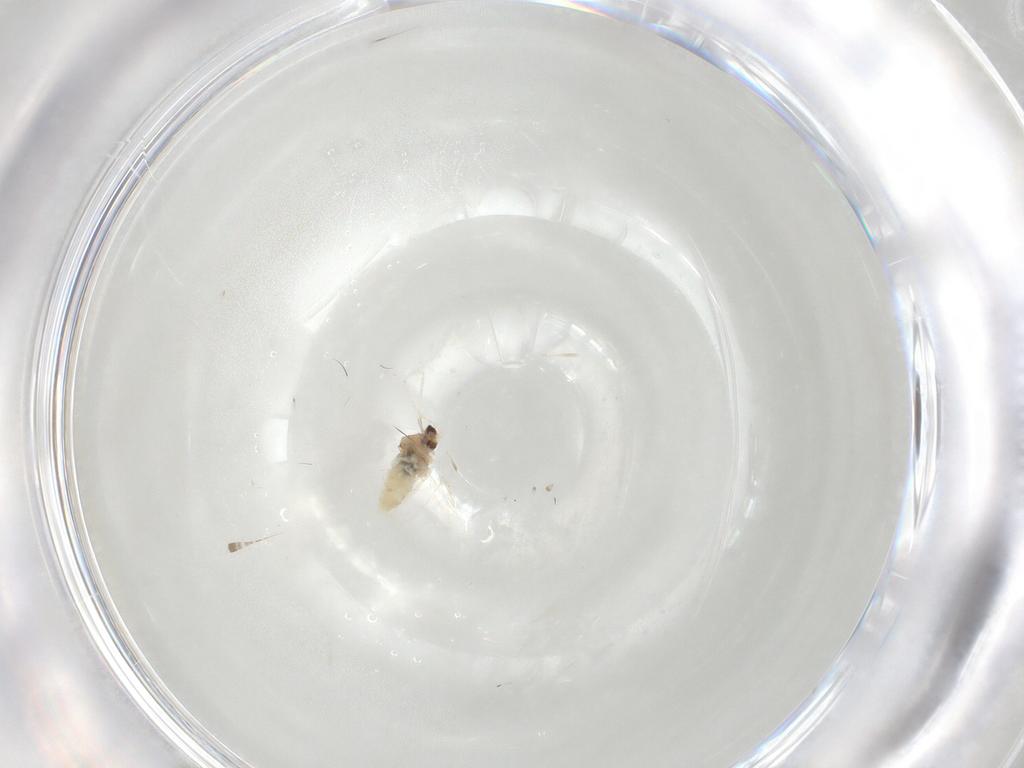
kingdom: Animalia
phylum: Arthropoda
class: Insecta
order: Diptera
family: Cecidomyiidae
